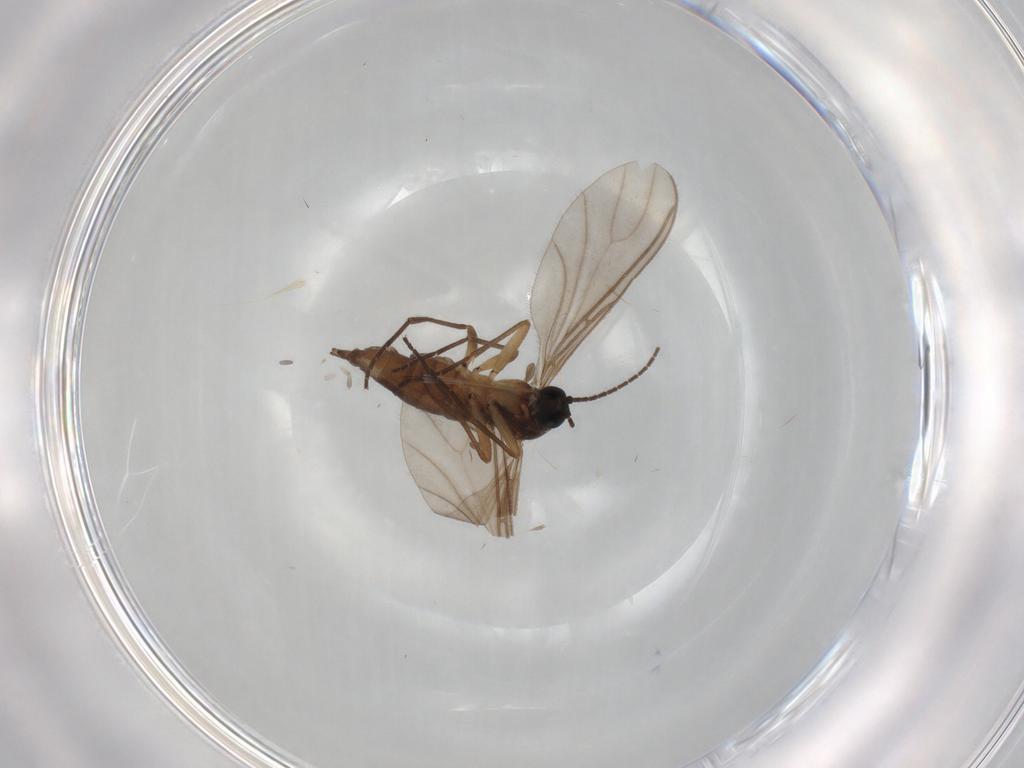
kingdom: Animalia
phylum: Arthropoda
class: Insecta
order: Diptera
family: Sciaridae
